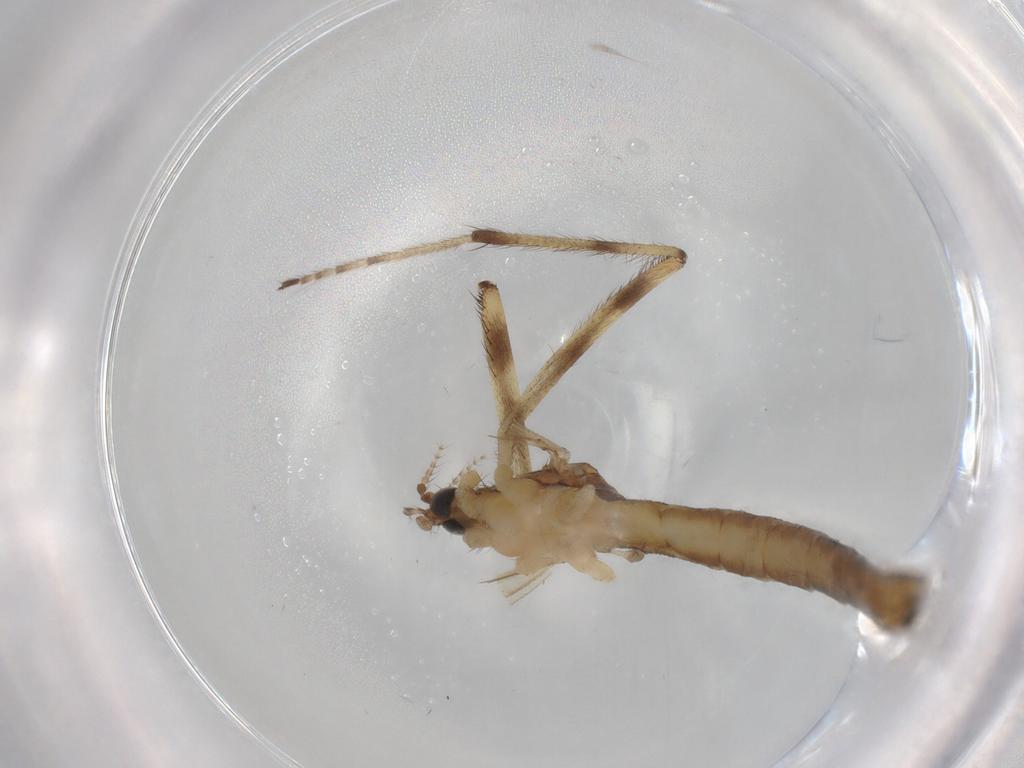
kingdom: Animalia
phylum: Arthropoda
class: Insecta
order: Diptera
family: Limoniidae
